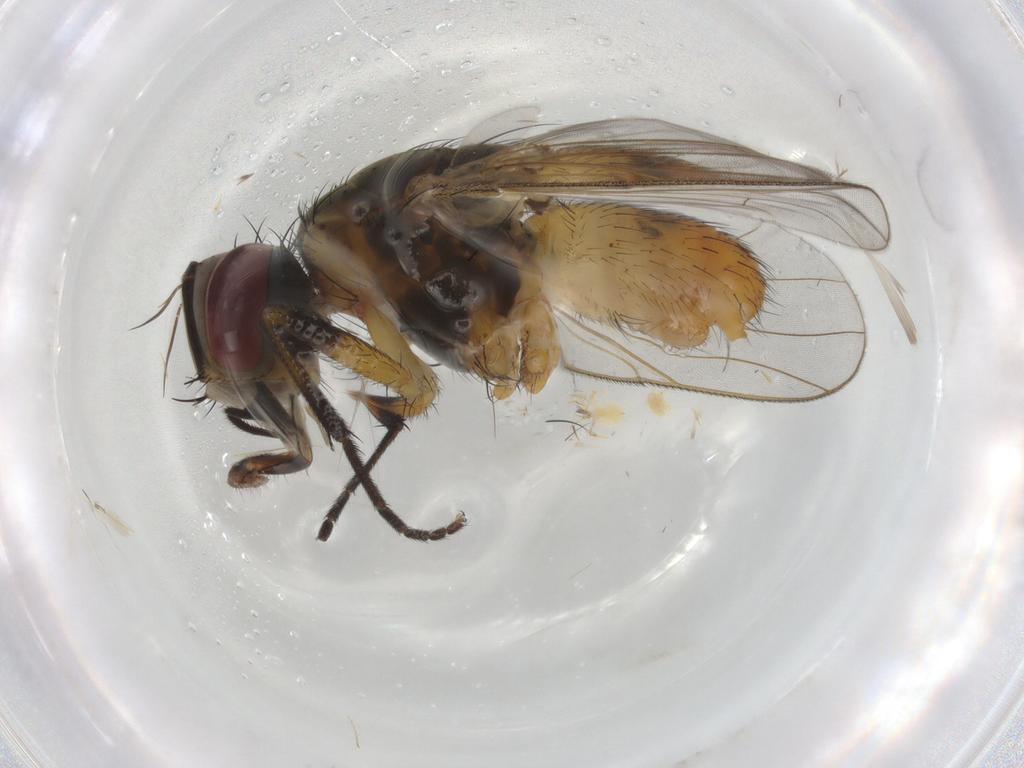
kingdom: Animalia
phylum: Arthropoda
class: Insecta
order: Diptera
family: Muscidae
